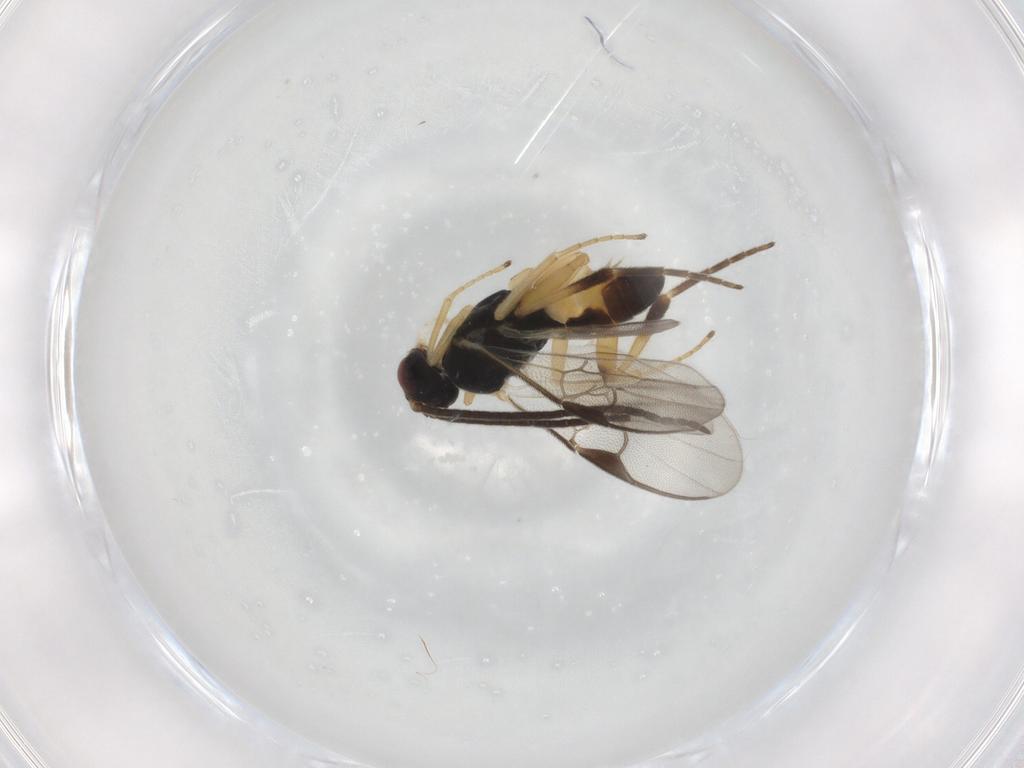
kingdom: Animalia
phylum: Arthropoda
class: Insecta
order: Hymenoptera
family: Braconidae
